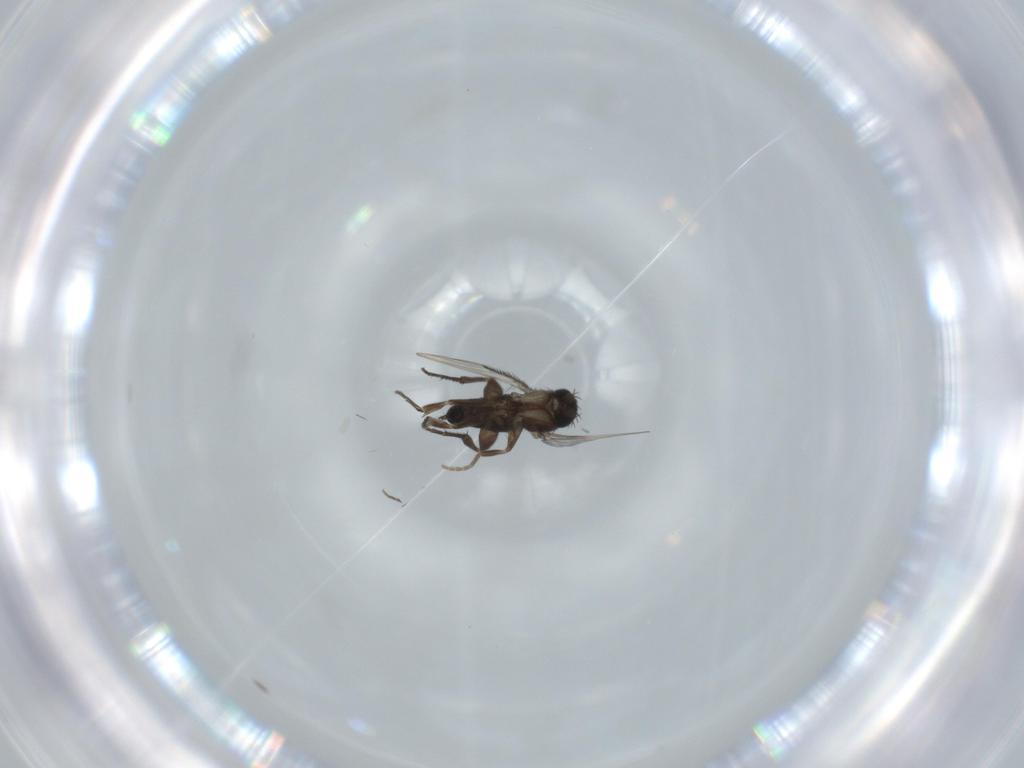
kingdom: Animalia
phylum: Arthropoda
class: Insecta
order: Diptera
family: Phoridae
